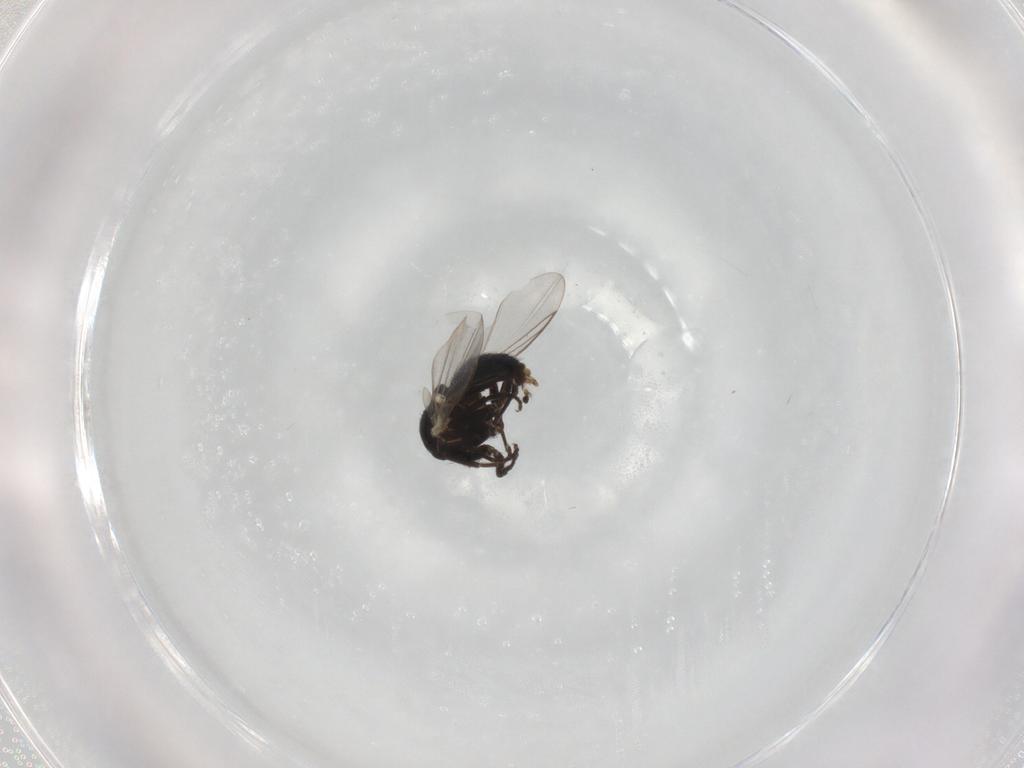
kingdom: Animalia
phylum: Arthropoda
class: Insecta
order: Diptera
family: Agromyzidae
